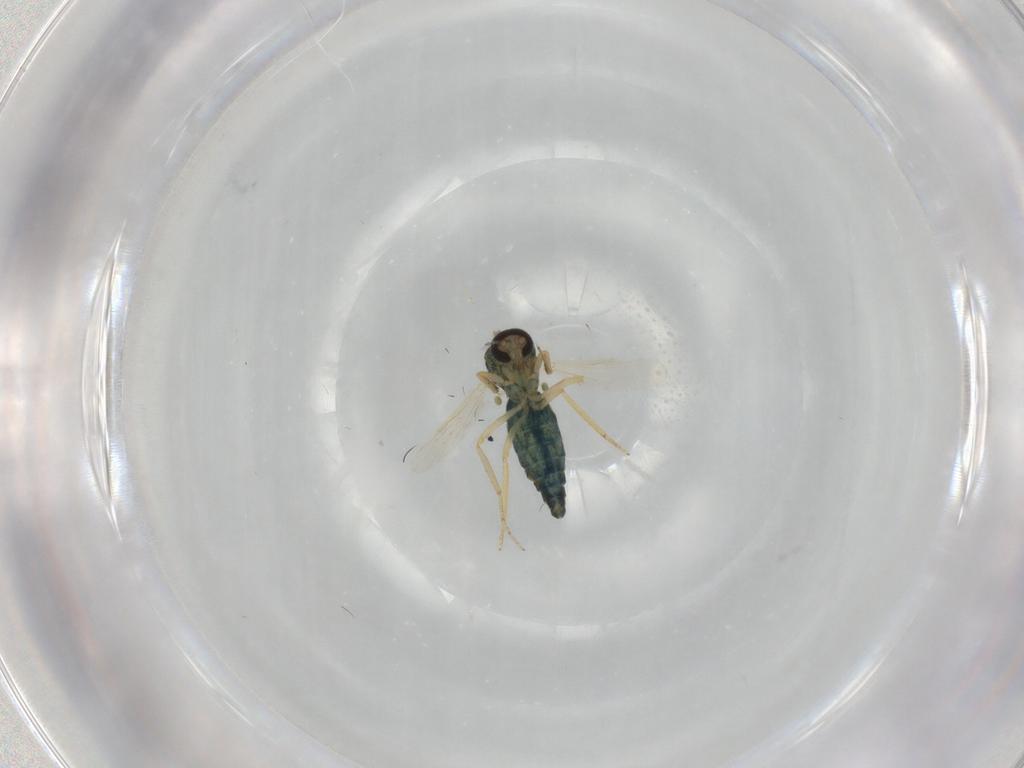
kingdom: Animalia
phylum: Arthropoda
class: Insecta
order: Diptera
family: Ceratopogonidae
